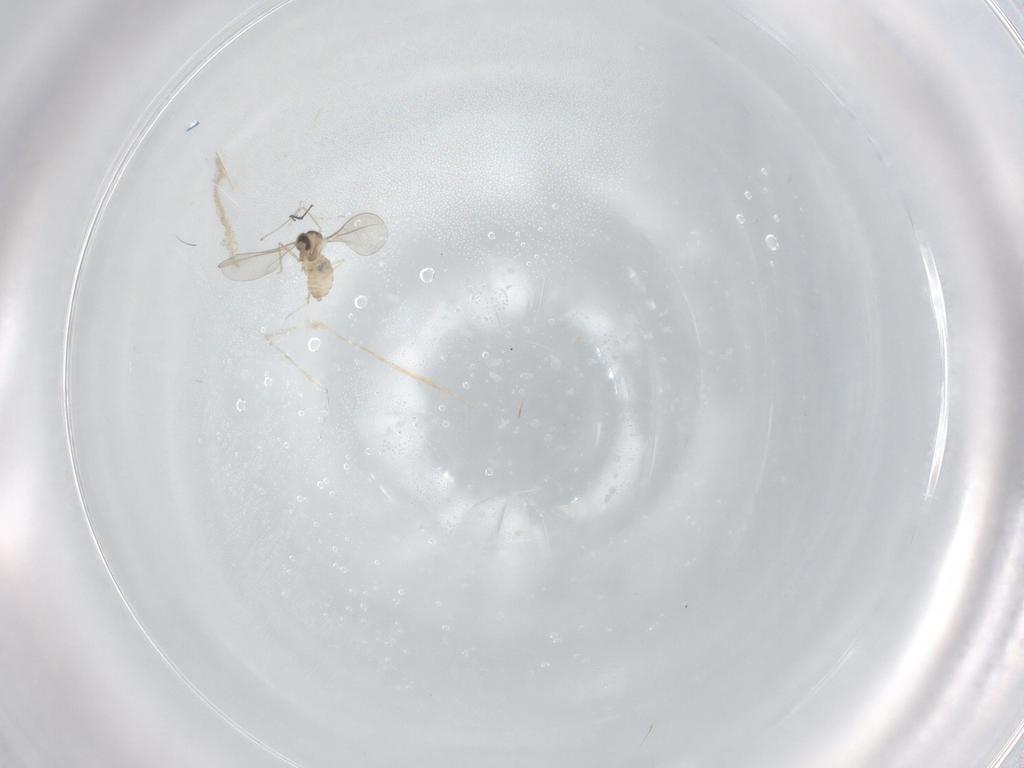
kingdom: Animalia
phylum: Arthropoda
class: Insecta
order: Diptera
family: Cecidomyiidae
